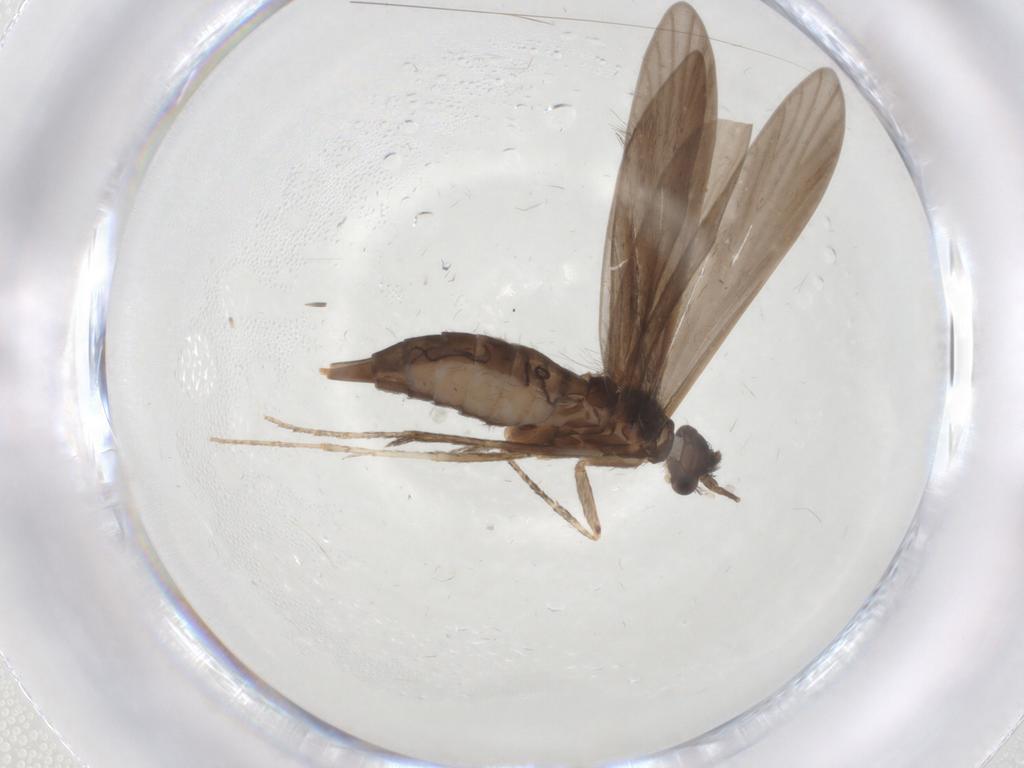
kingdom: Animalia
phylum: Arthropoda
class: Insecta
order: Trichoptera
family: Xiphocentronidae
